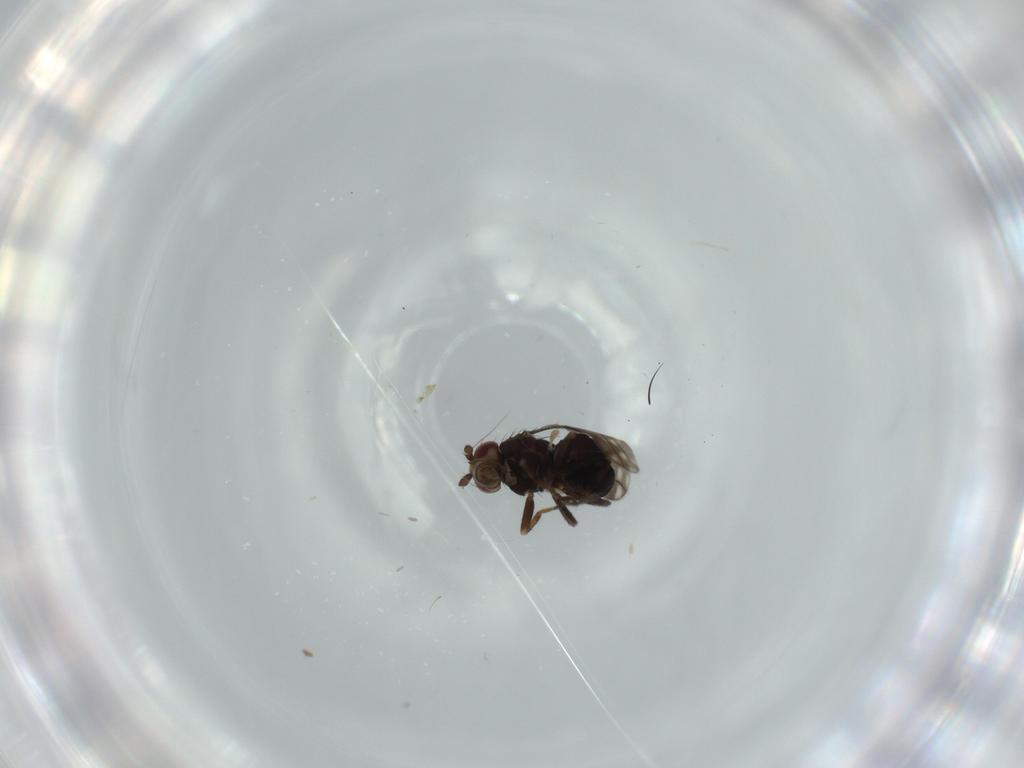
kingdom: Animalia
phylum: Arthropoda
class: Insecta
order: Diptera
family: Sphaeroceridae
